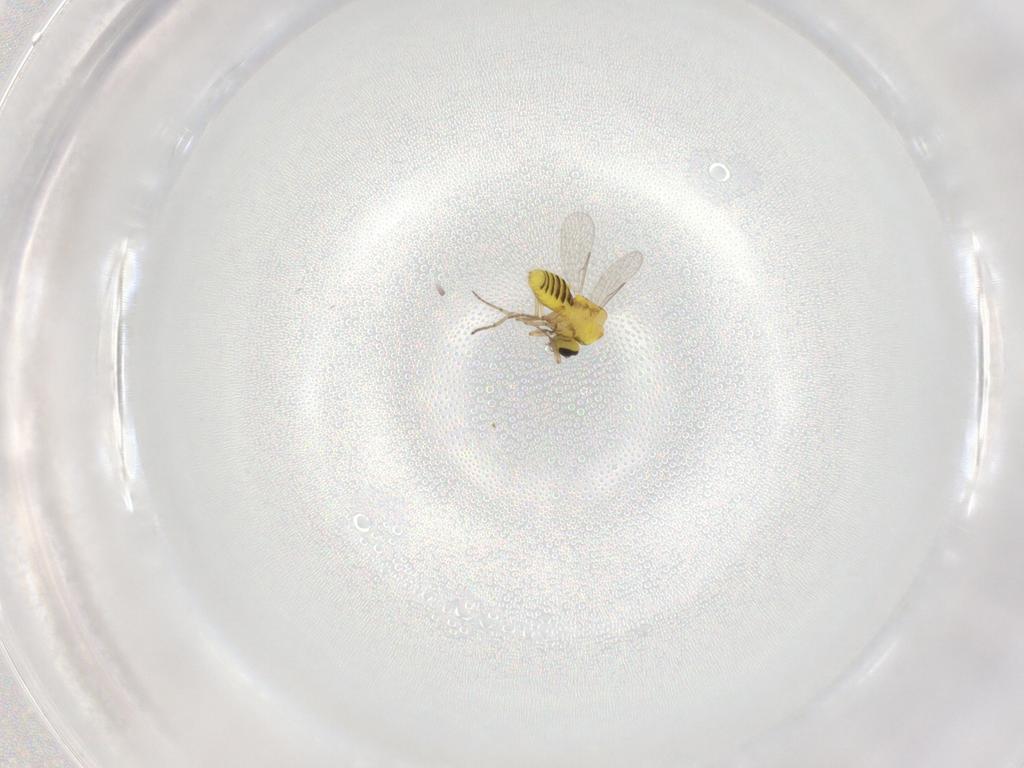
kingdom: Animalia
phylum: Arthropoda
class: Insecta
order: Diptera
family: Ceratopogonidae
